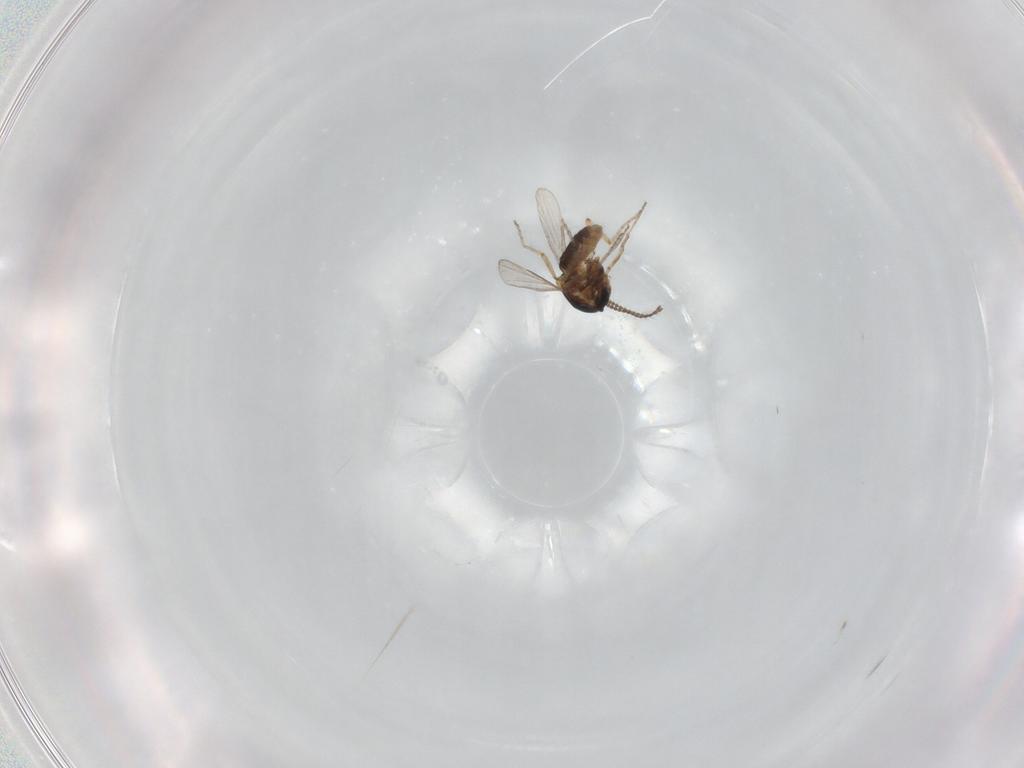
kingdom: Animalia
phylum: Arthropoda
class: Insecta
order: Diptera
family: Ceratopogonidae
